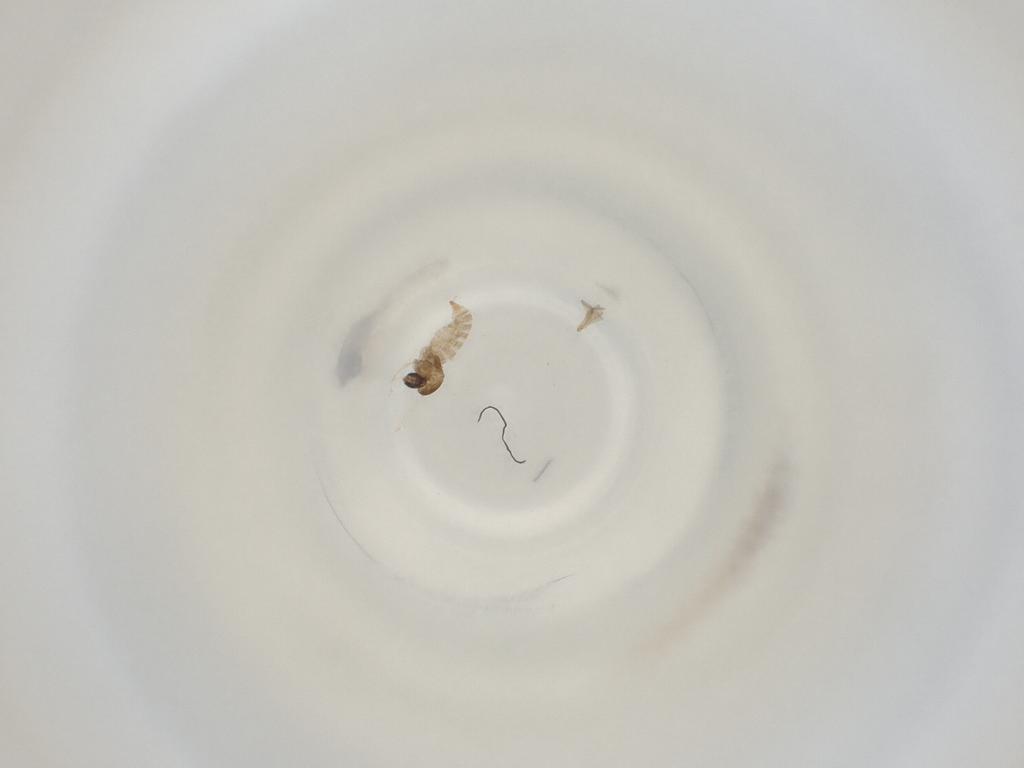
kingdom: Animalia
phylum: Arthropoda
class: Insecta
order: Diptera
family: Cecidomyiidae
